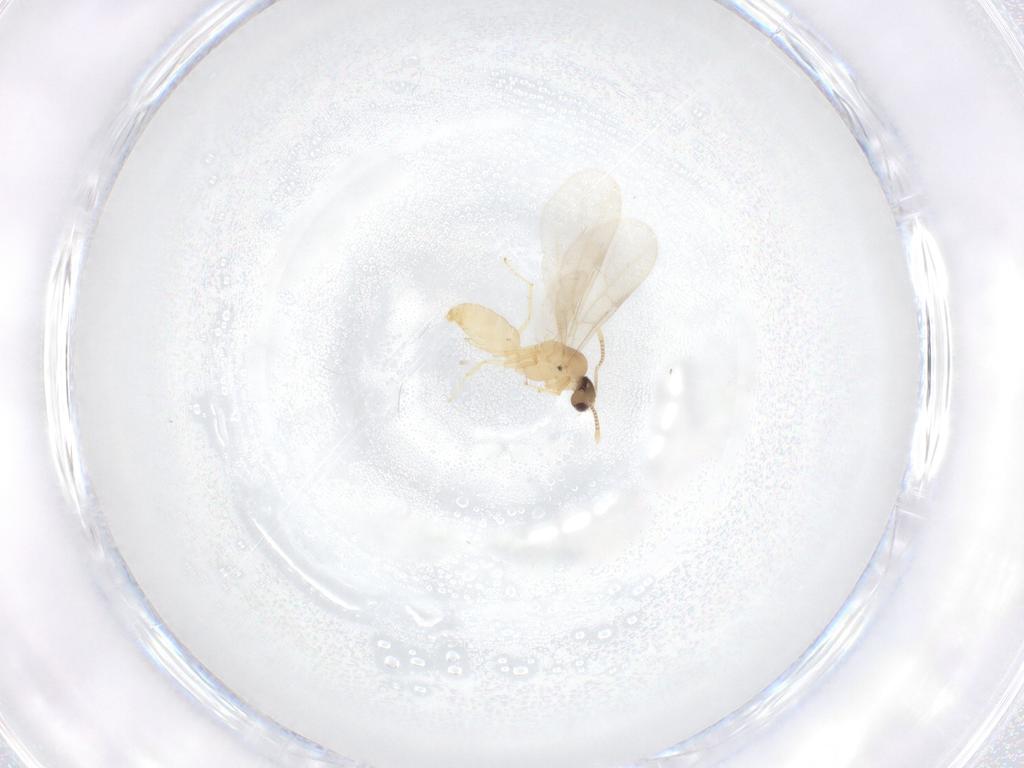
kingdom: Animalia
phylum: Arthropoda
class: Insecta
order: Hymenoptera
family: Formicidae
